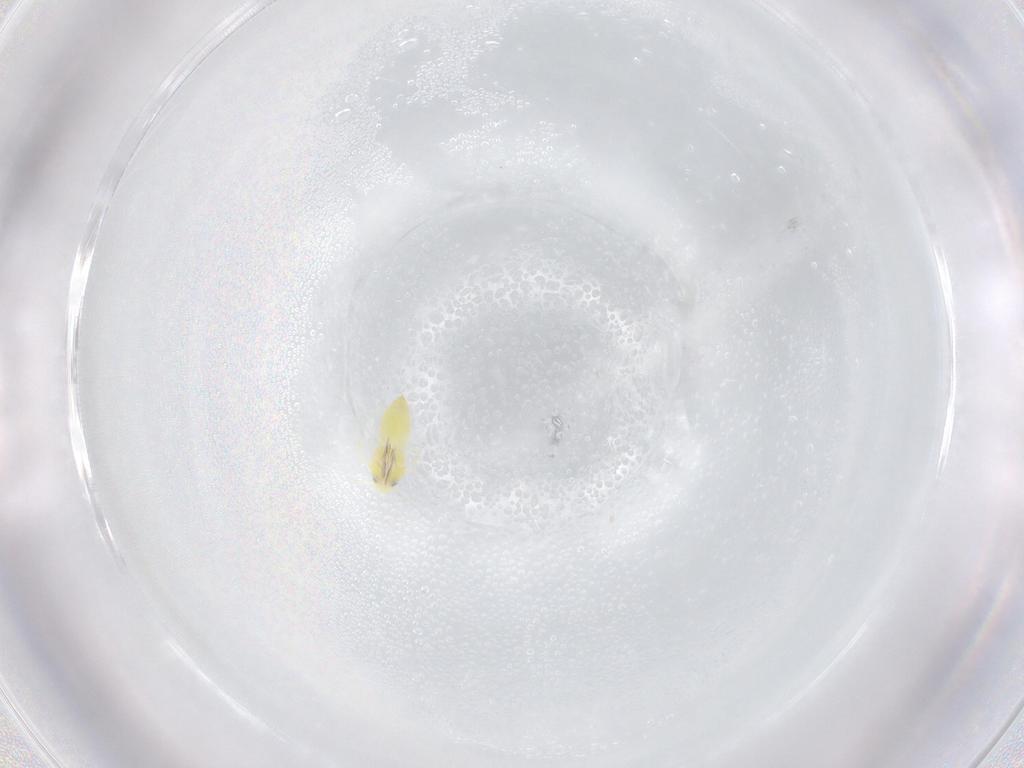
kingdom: Animalia
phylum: Arthropoda
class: Insecta
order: Hemiptera
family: Aleyrodidae
